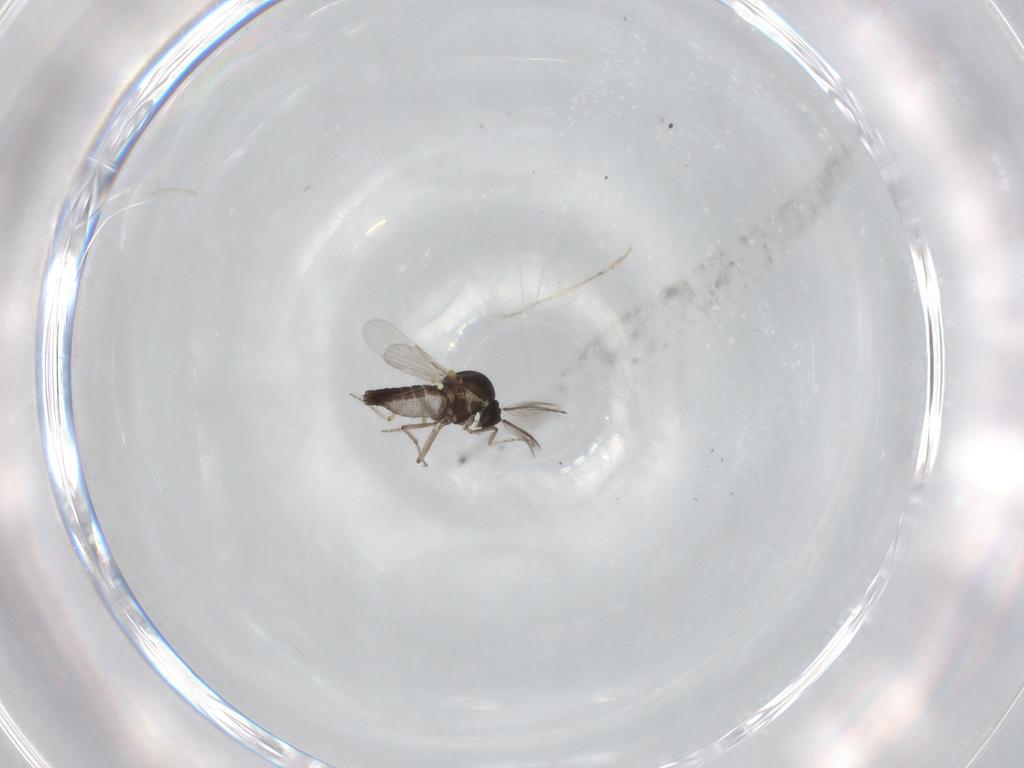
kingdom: Animalia
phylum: Arthropoda
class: Insecta
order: Diptera
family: Ceratopogonidae
